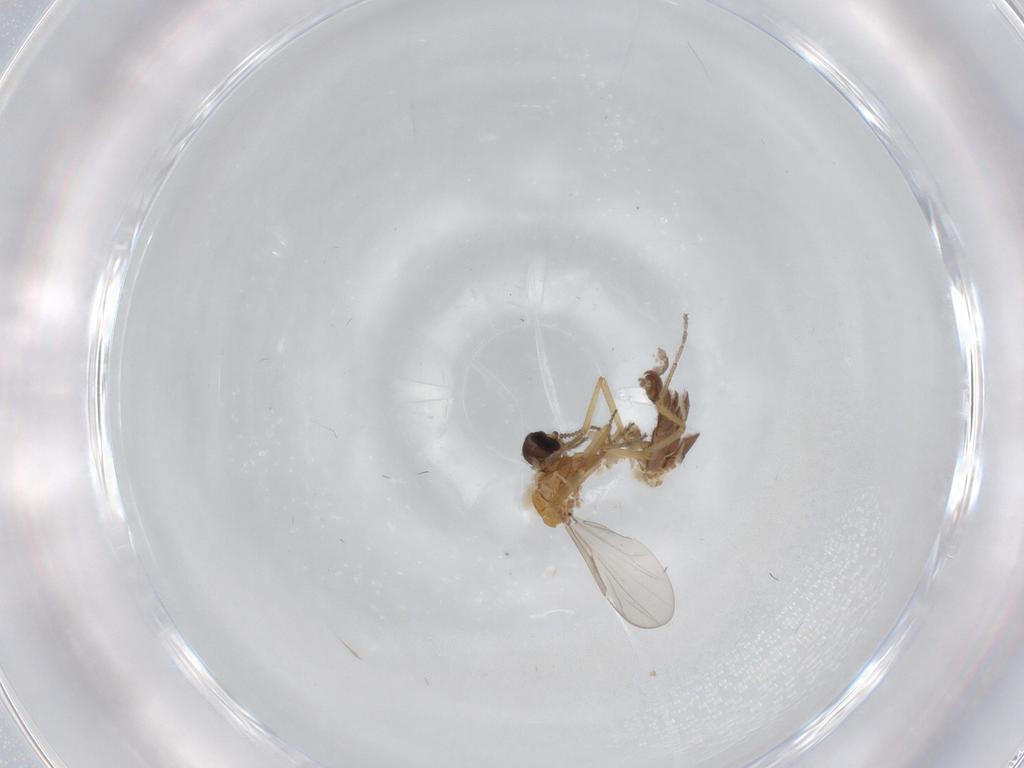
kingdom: Animalia
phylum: Arthropoda
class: Insecta
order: Diptera
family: Ceratopogonidae
